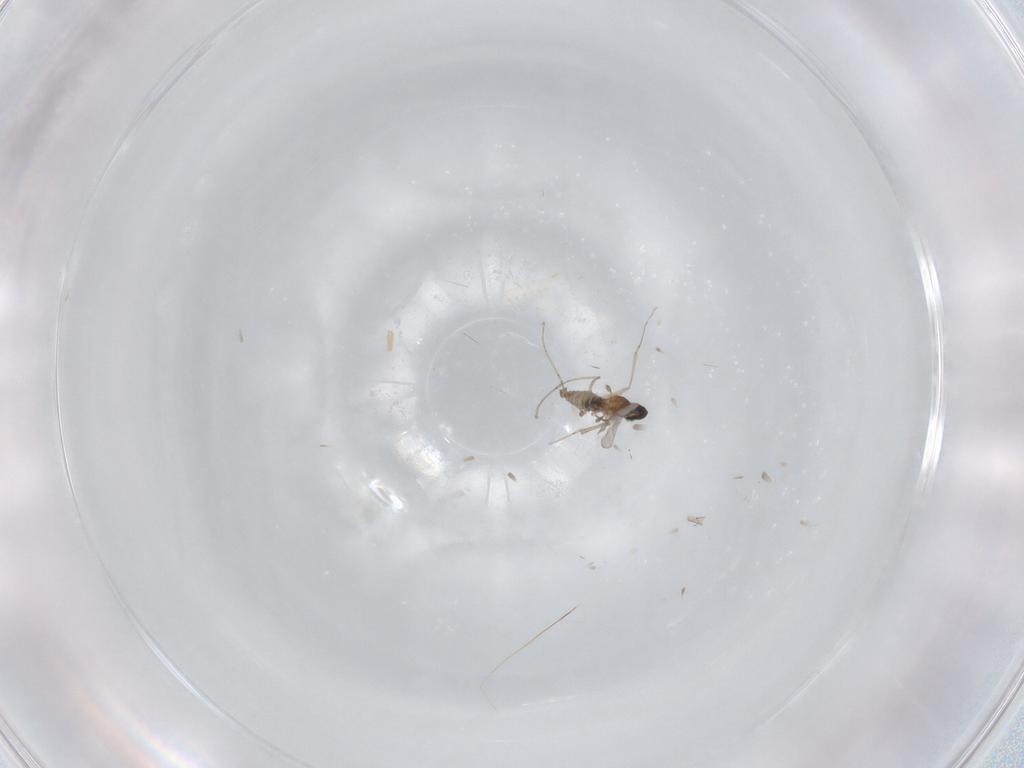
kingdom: Animalia
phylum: Arthropoda
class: Insecta
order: Diptera
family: Cecidomyiidae
